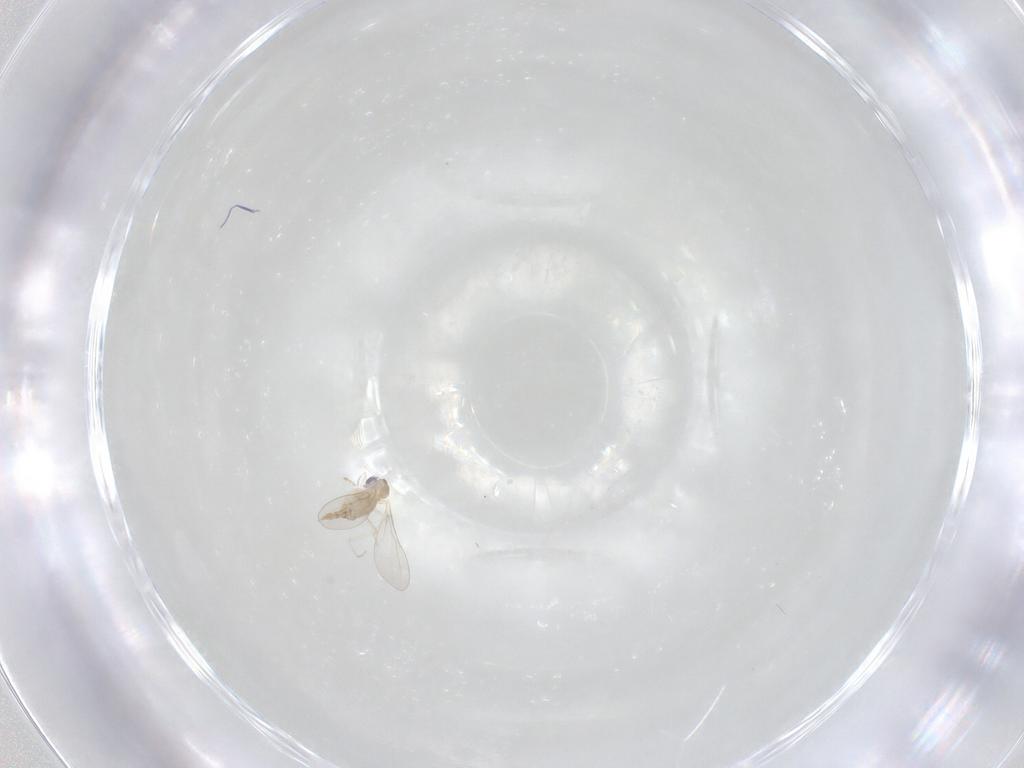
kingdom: Animalia
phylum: Arthropoda
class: Insecta
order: Diptera
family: Cecidomyiidae
